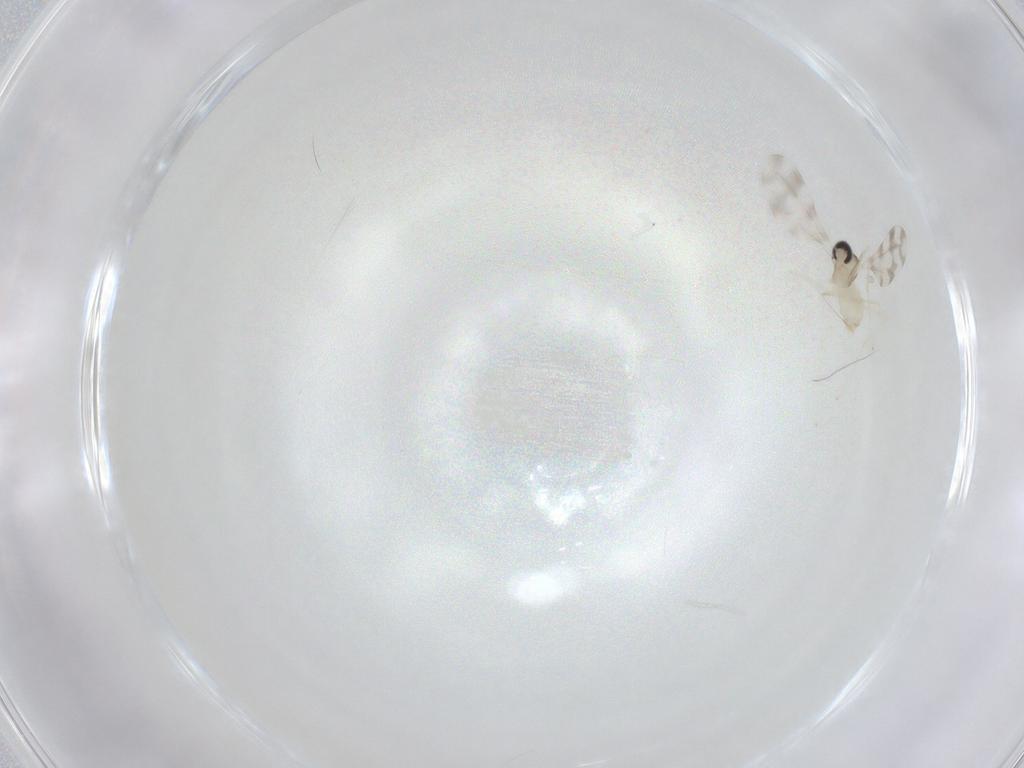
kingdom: Animalia
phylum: Arthropoda
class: Insecta
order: Diptera
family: Cecidomyiidae
